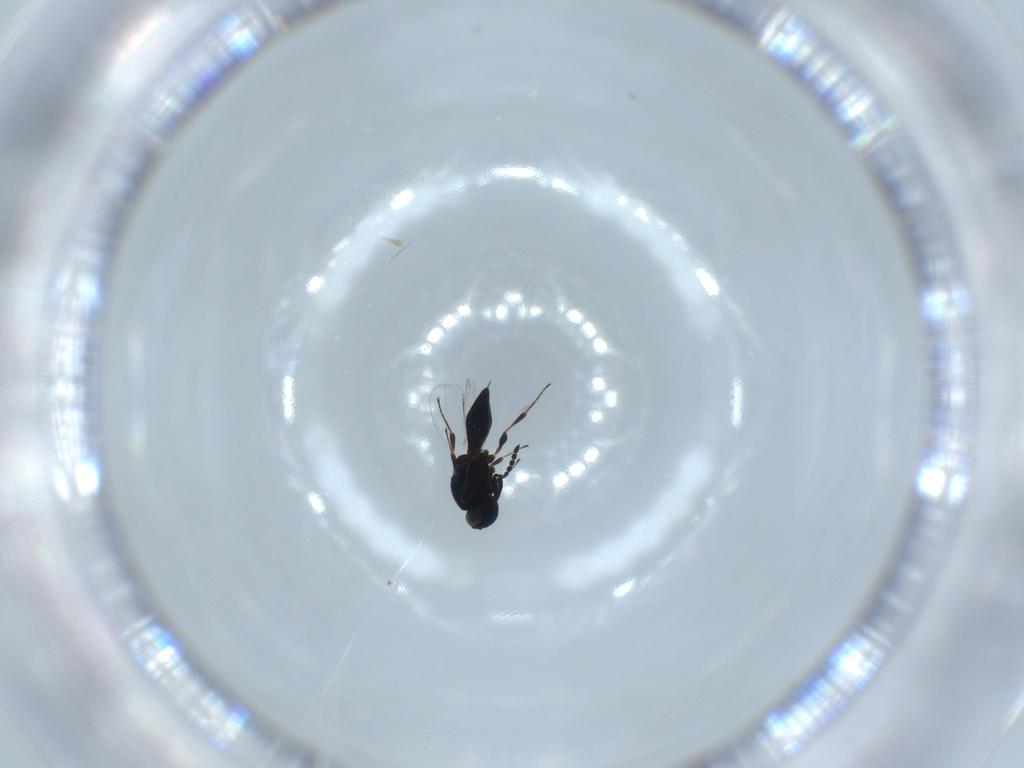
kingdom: Animalia
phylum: Arthropoda
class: Insecta
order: Hymenoptera
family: Platygastridae
